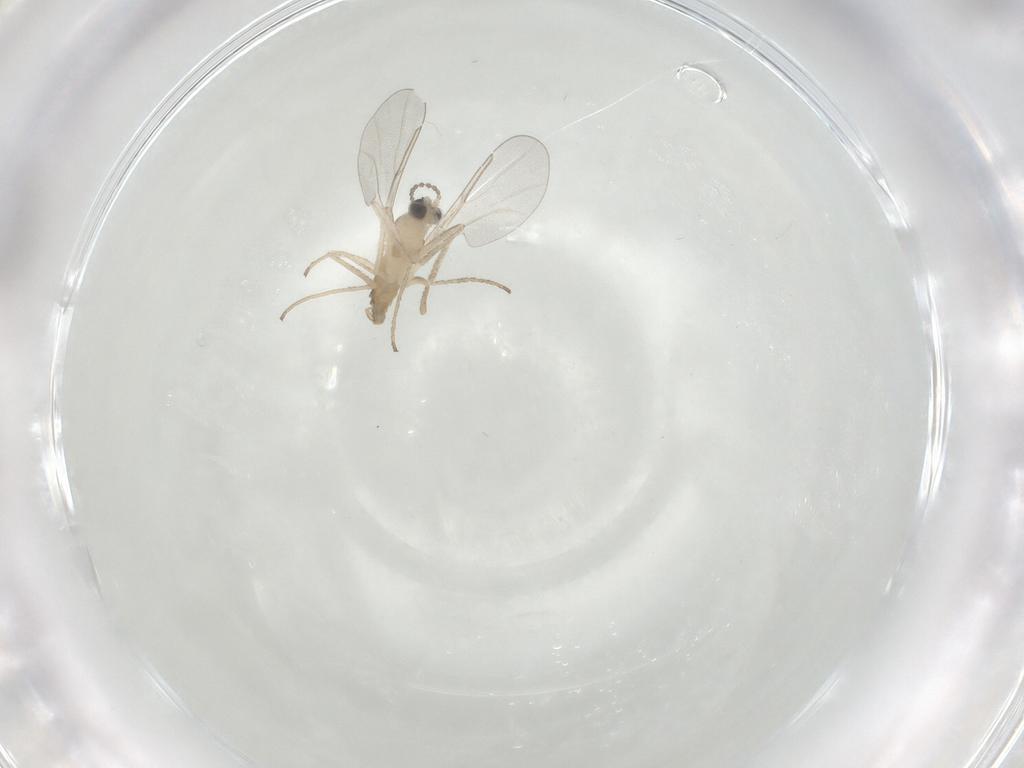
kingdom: Animalia
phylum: Arthropoda
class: Insecta
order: Diptera
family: Cecidomyiidae
